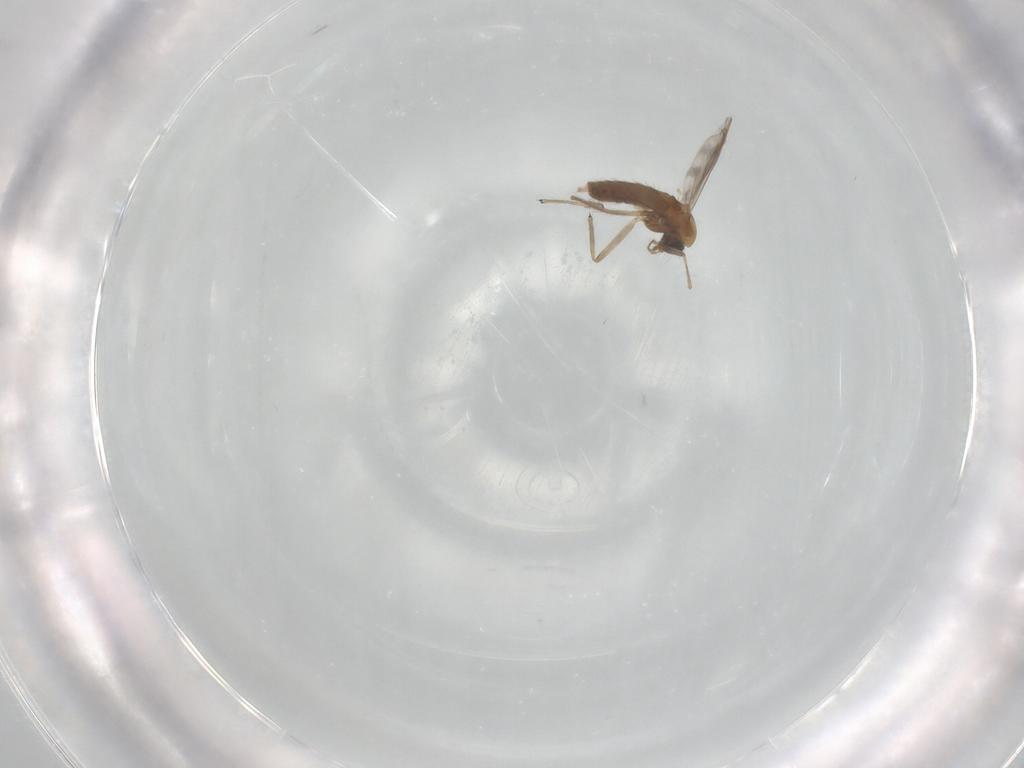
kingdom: Animalia
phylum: Arthropoda
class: Insecta
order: Diptera
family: Chironomidae
